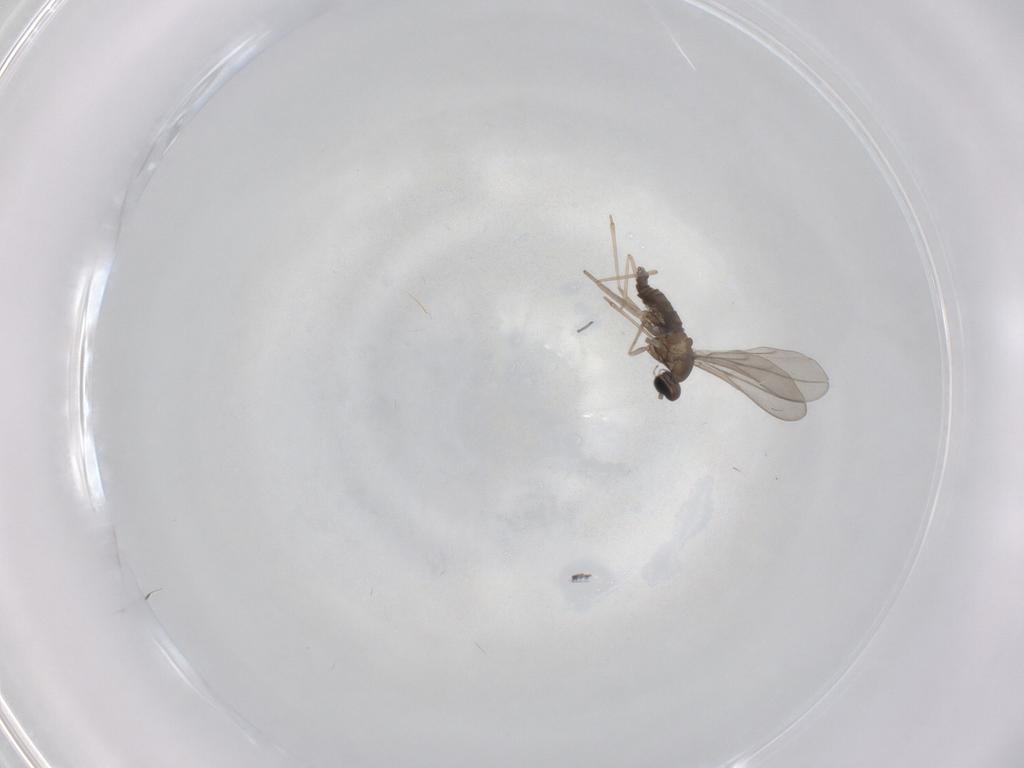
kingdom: Animalia
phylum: Arthropoda
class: Insecta
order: Diptera
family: Cecidomyiidae
